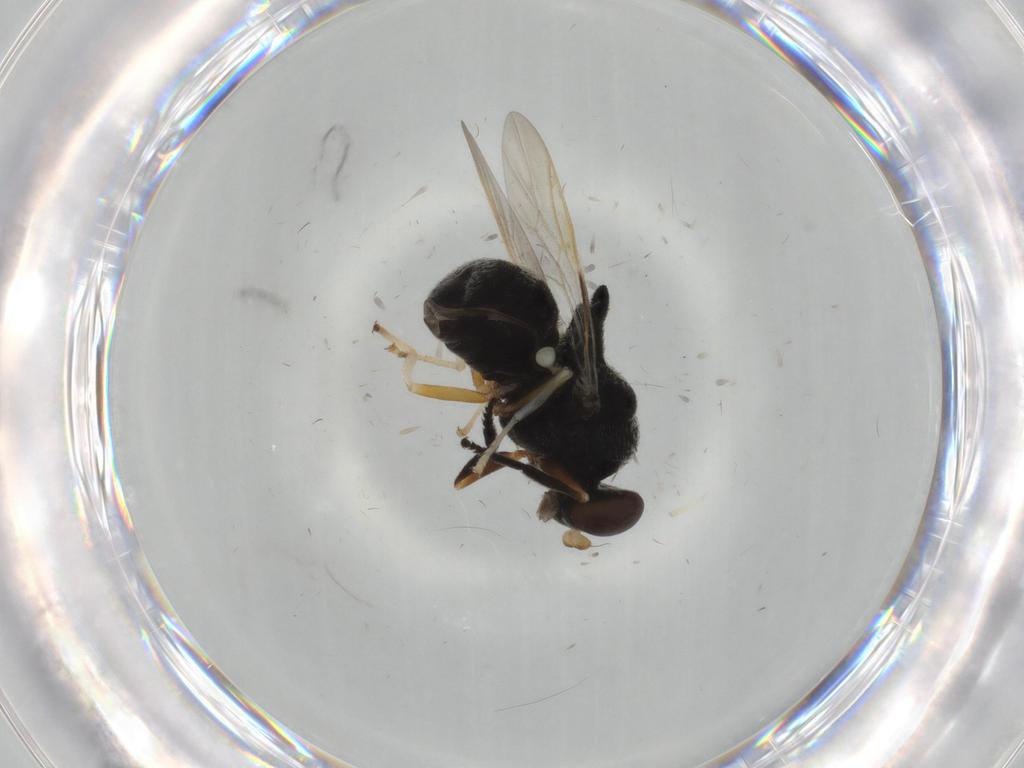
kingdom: Animalia
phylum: Arthropoda
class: Insecta
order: Diptera
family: Stratiomyidae
